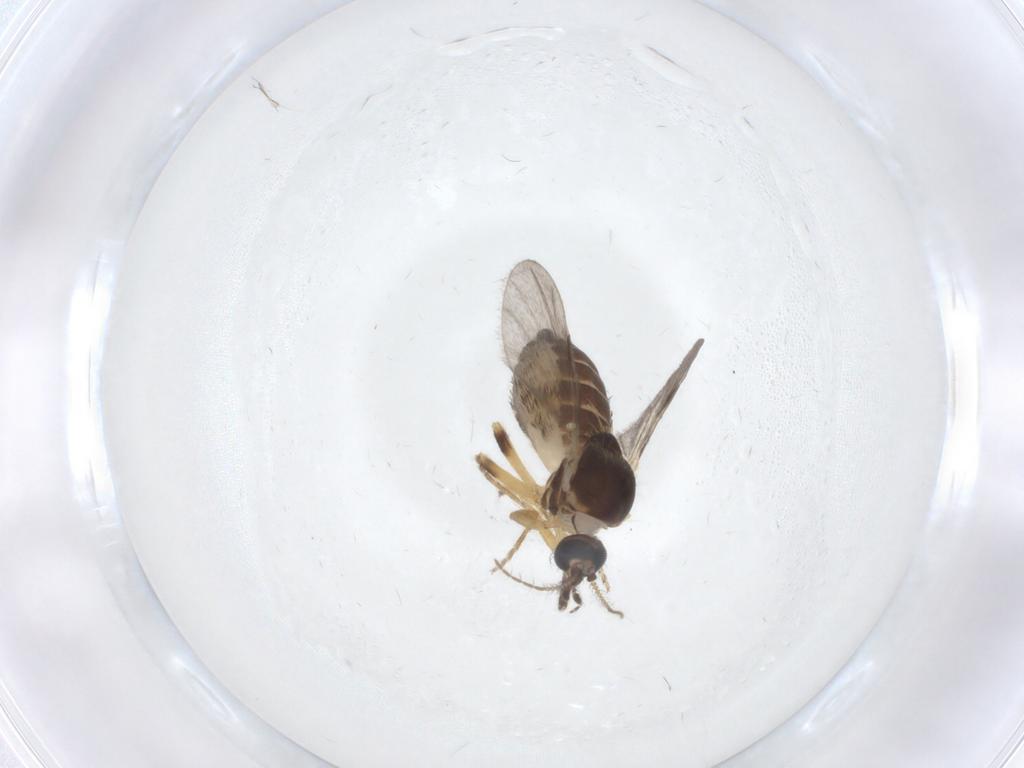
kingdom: Animalia
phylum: Arthropoda
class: Insecta
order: Diptera
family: Ceratopogonidae
